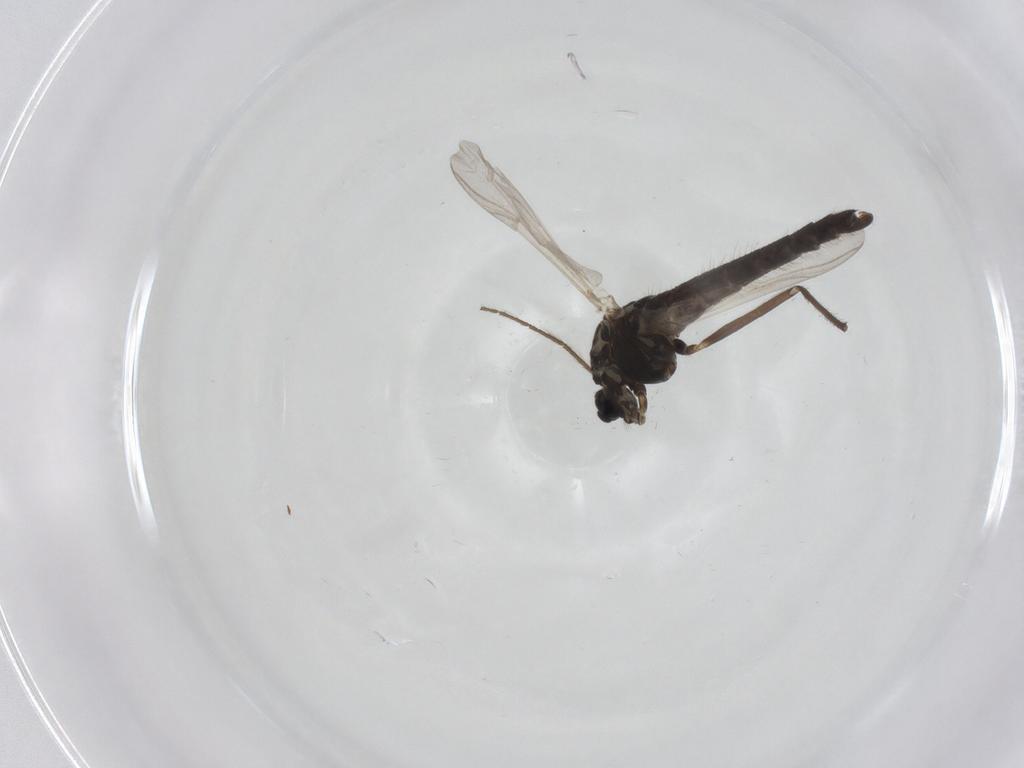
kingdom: Animalia
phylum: Arthropoda
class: Insecta
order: Diptera
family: Chironomidae
